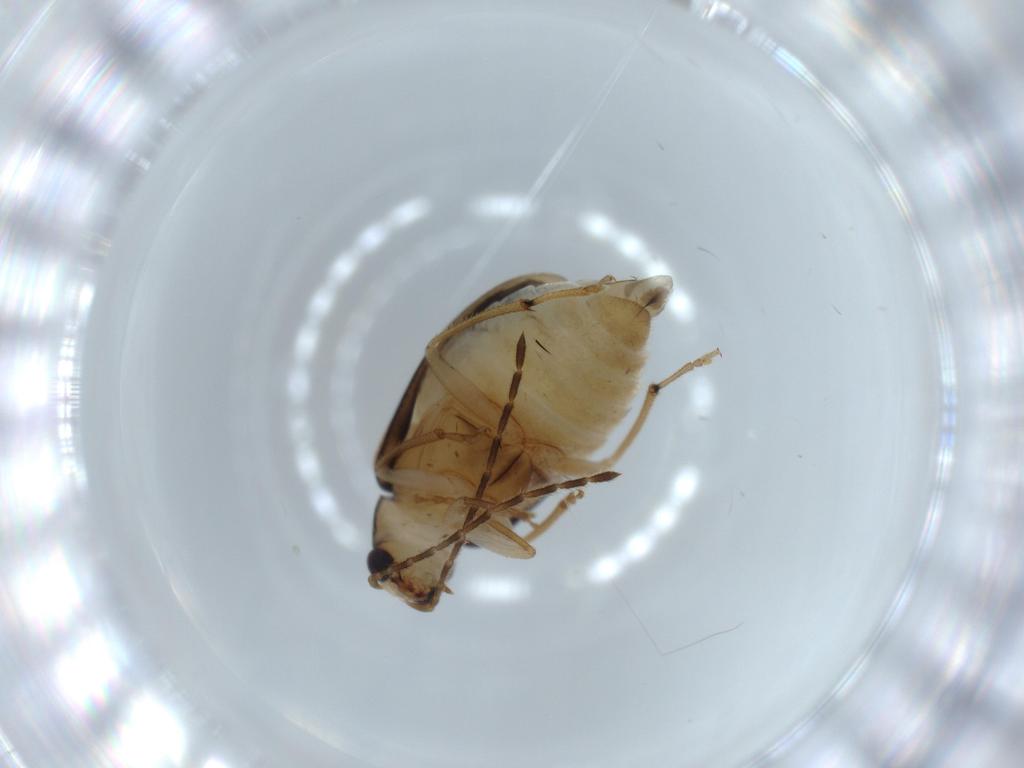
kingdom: Animalia
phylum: Arthropoda
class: Insecta
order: Coleoptera
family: Chrysomelidae
